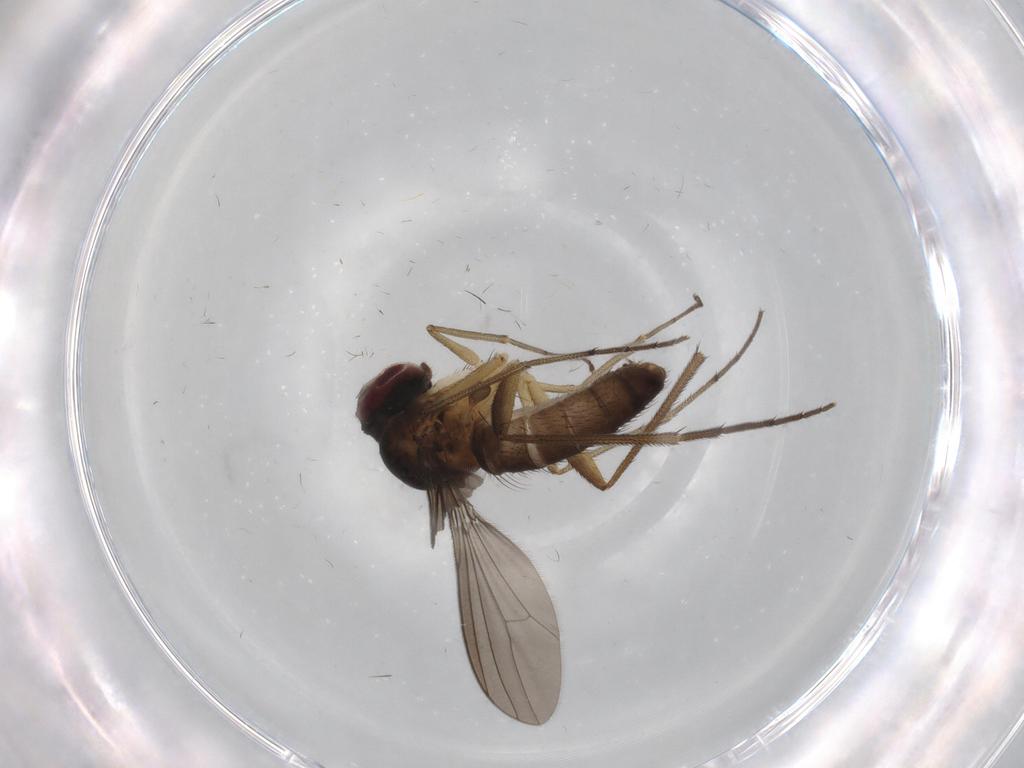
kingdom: Animalia
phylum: Arthropoda
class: Insecta
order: Diptera
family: Dolichopodidae
